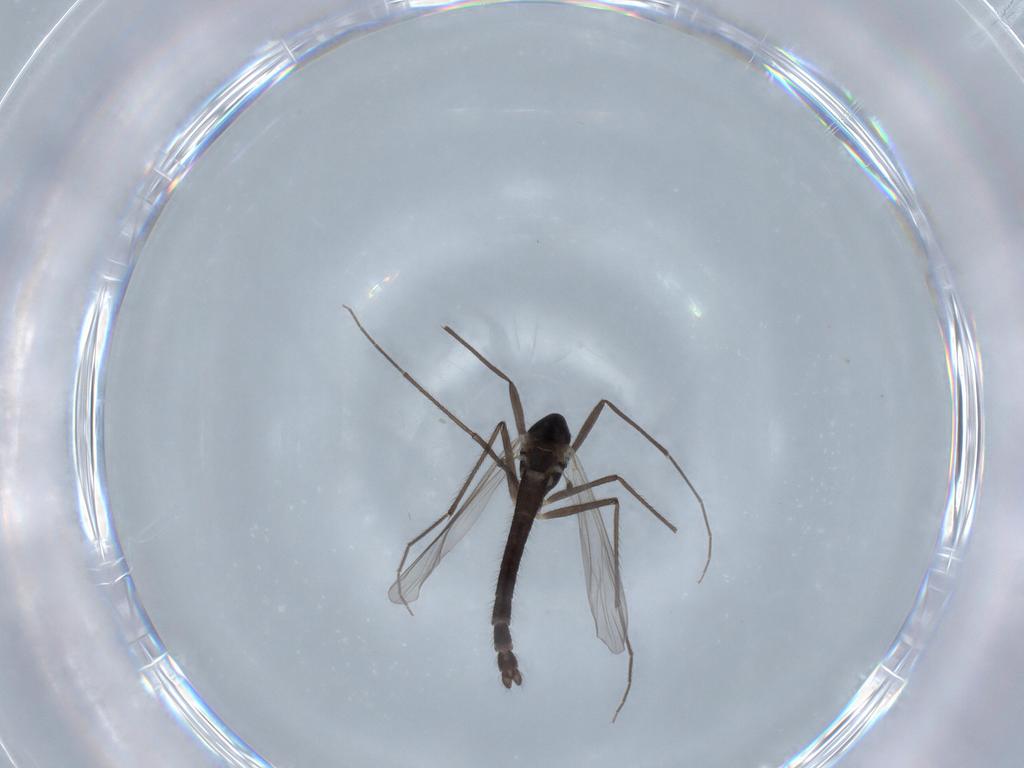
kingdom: Animalia
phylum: Arthropoda
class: Insecta
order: Diptera
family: Chironomidae
